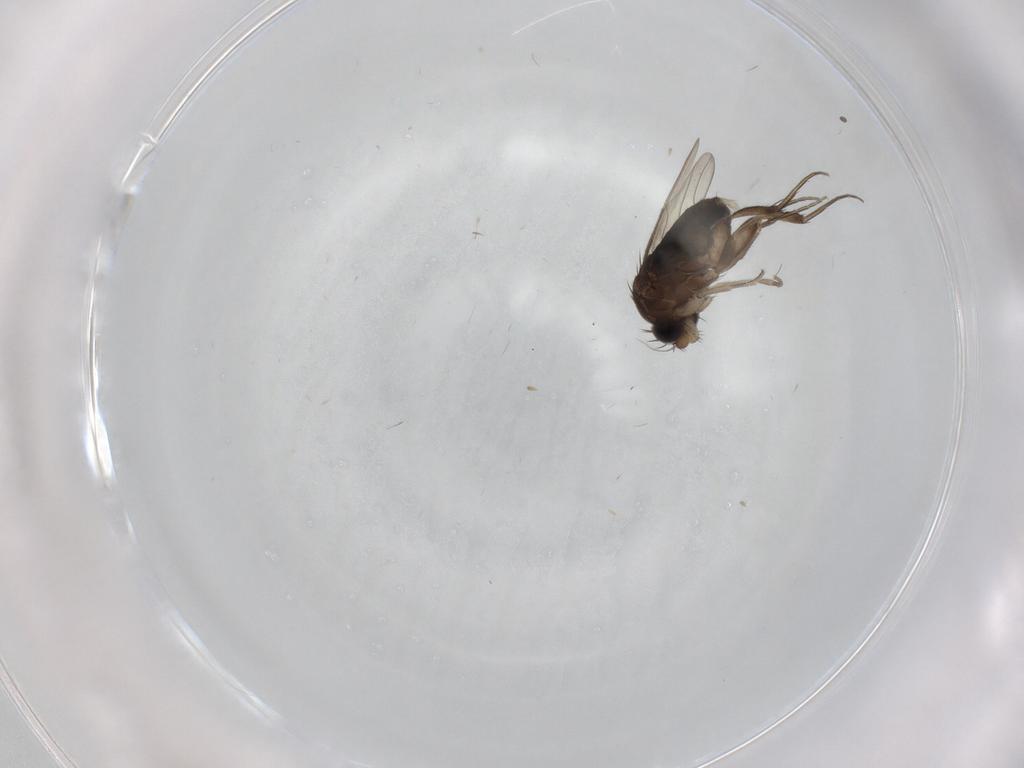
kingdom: Animalia
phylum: Arthropoda
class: Insecta
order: Diptera
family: Phoridae
